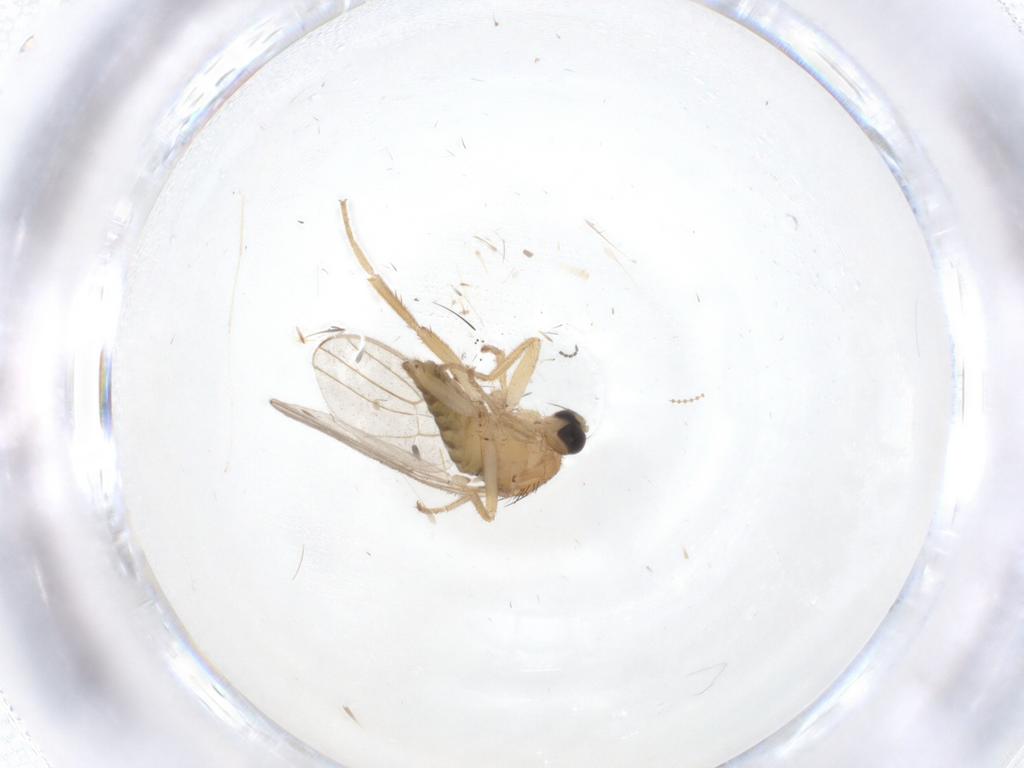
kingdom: Animalia
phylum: Arthropoda
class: Insecta
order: Diptera
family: Hybotidae
